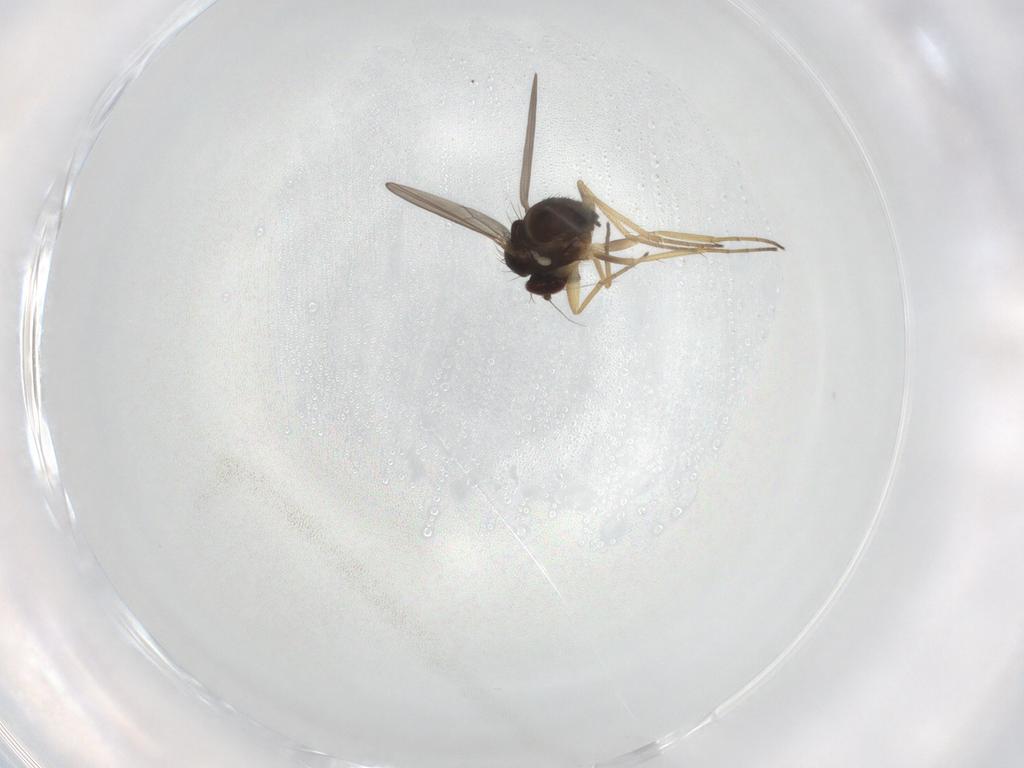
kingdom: Animalia
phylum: Arthropoda
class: Insecta
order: Diptera
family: Dolichopodidae
